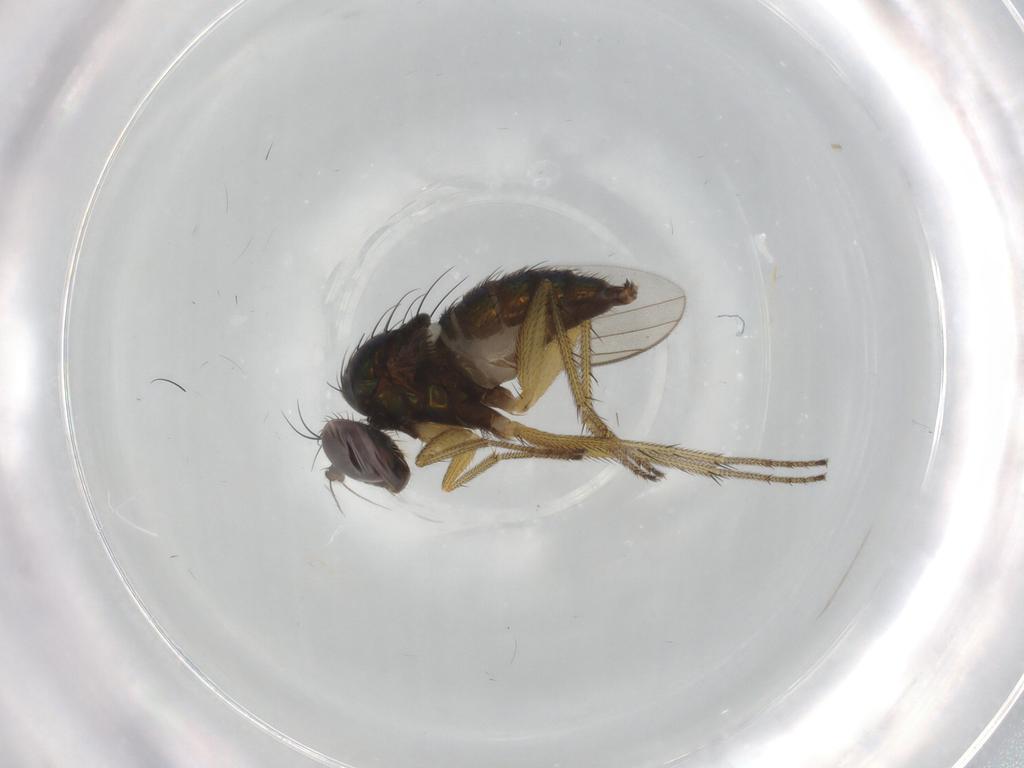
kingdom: Animalia
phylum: Arthropoda
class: Insecta
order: Diptera
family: Dolichopodidae
